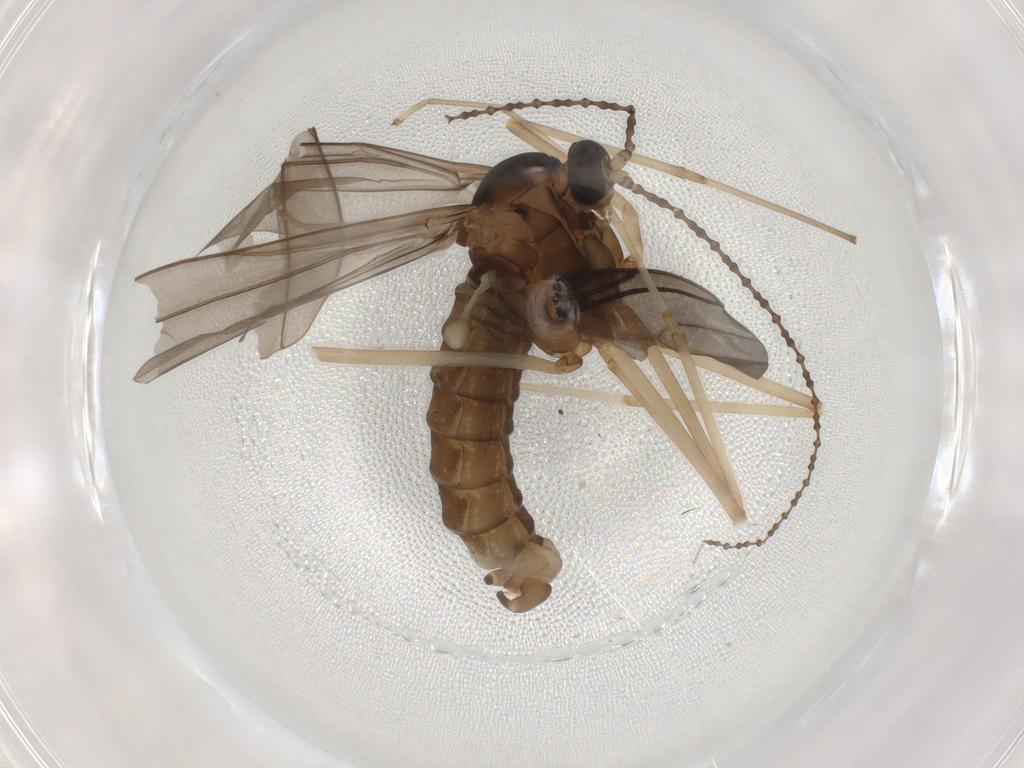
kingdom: Animalia
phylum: Arthropoda
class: Insecta
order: Diptera
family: Cecidomyiidae
